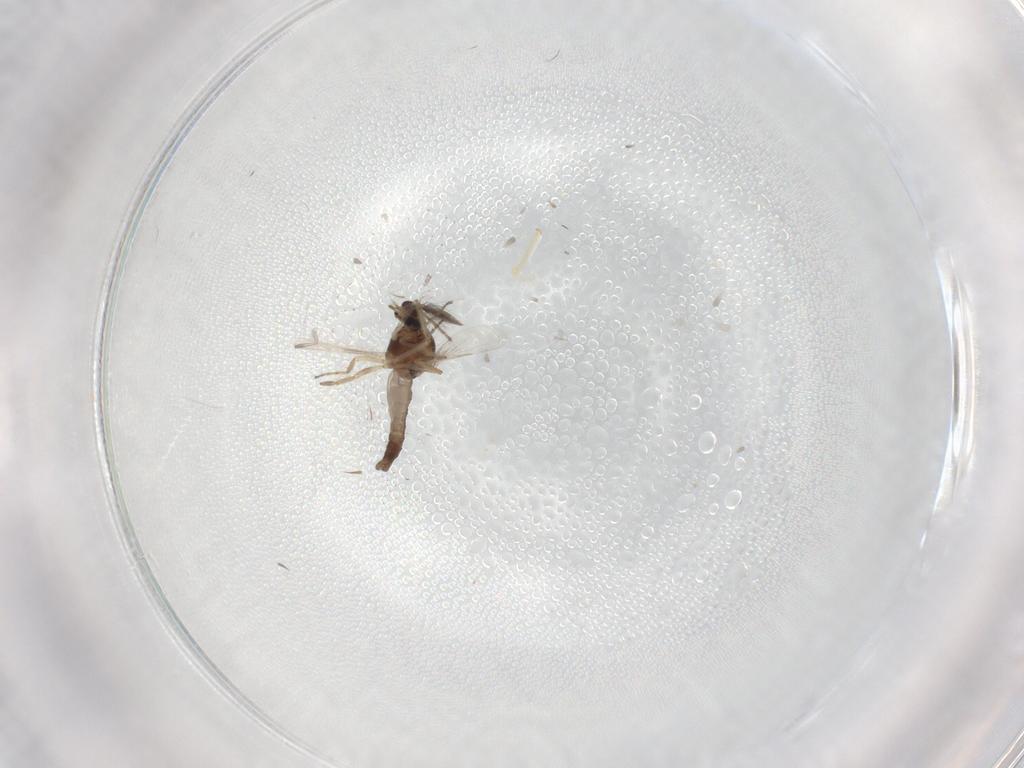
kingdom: Animalia
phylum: Arthropoda
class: Insecta
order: Diptera
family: Ceratopogonidae
